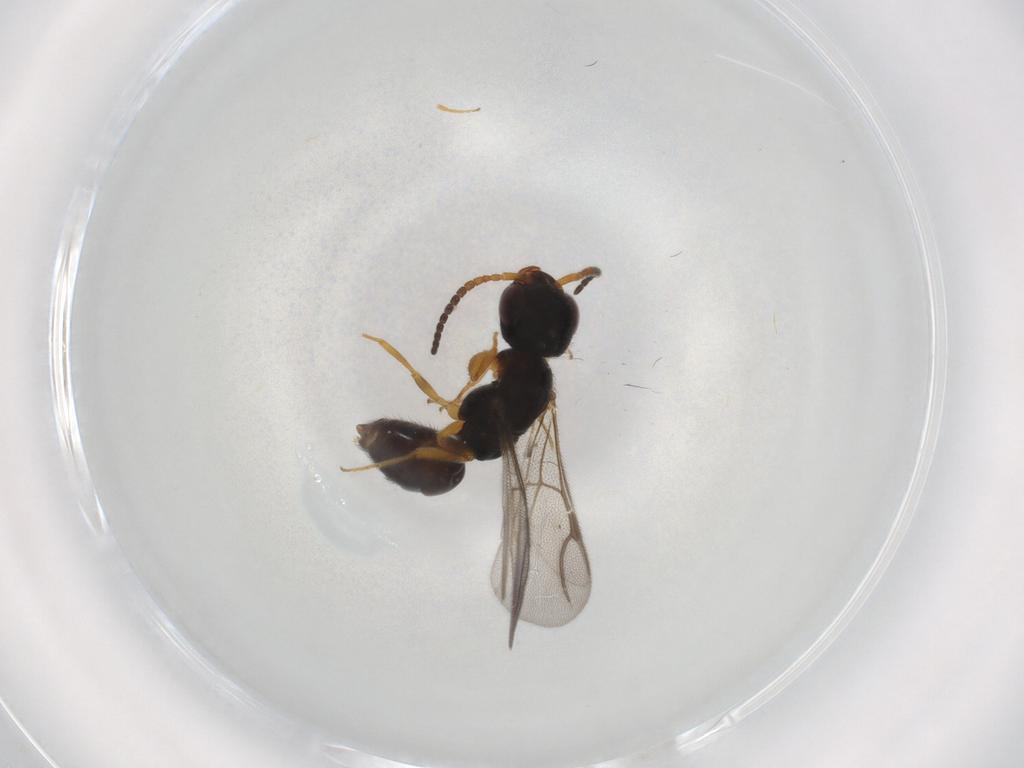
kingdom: Animalia
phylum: Arthropoda
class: Insecta
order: Hymenoptera
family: Bethylidae
